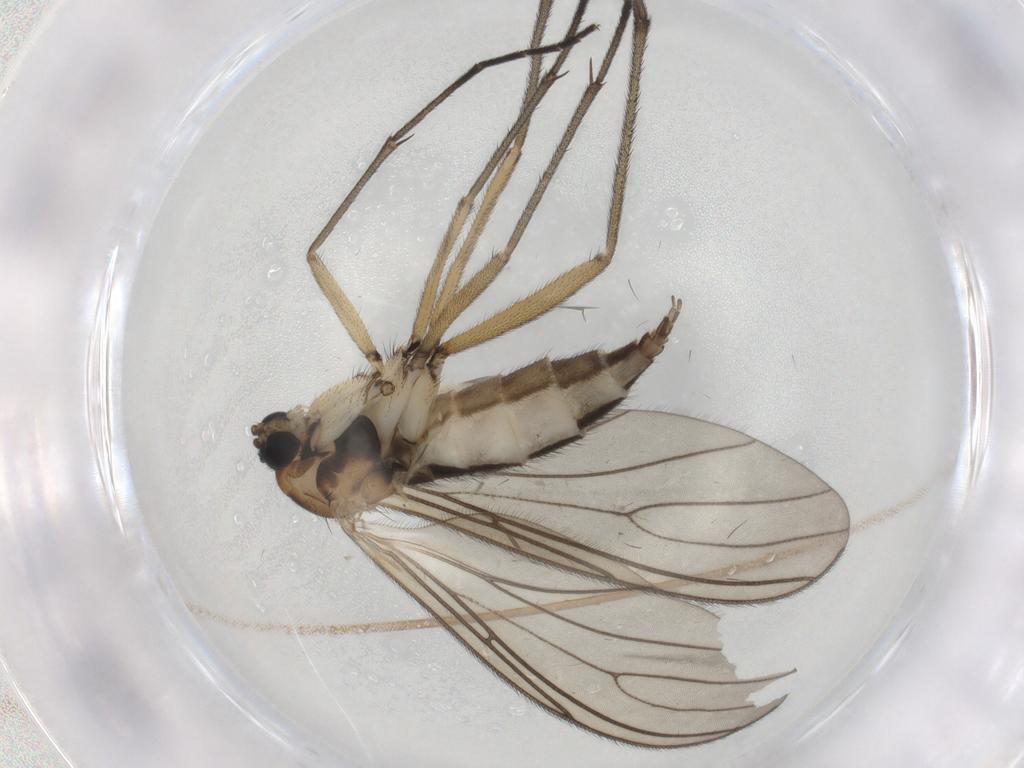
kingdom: Animalia
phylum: Arthropoda
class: Insecta
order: Diptera
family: Sciaridae
